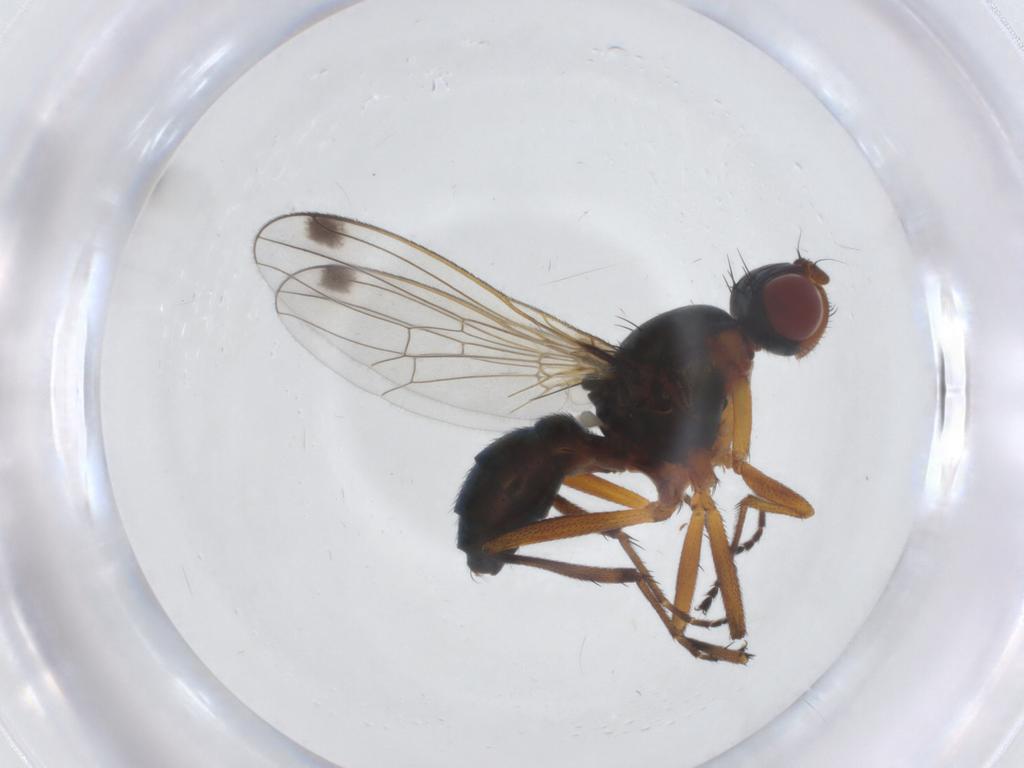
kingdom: Animalia
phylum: Arthropoda
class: Insecta
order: Diptera
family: Sepsidae
